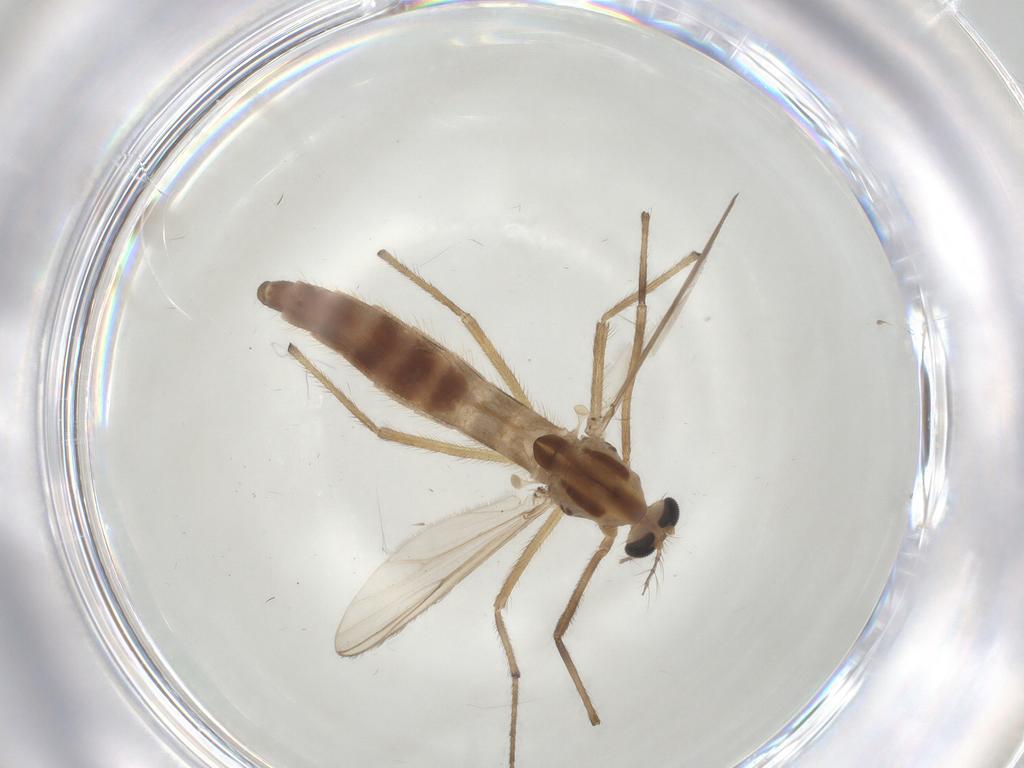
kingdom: Animalia
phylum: Arthropoda
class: Insecta
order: Diptera
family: Chironomidae
